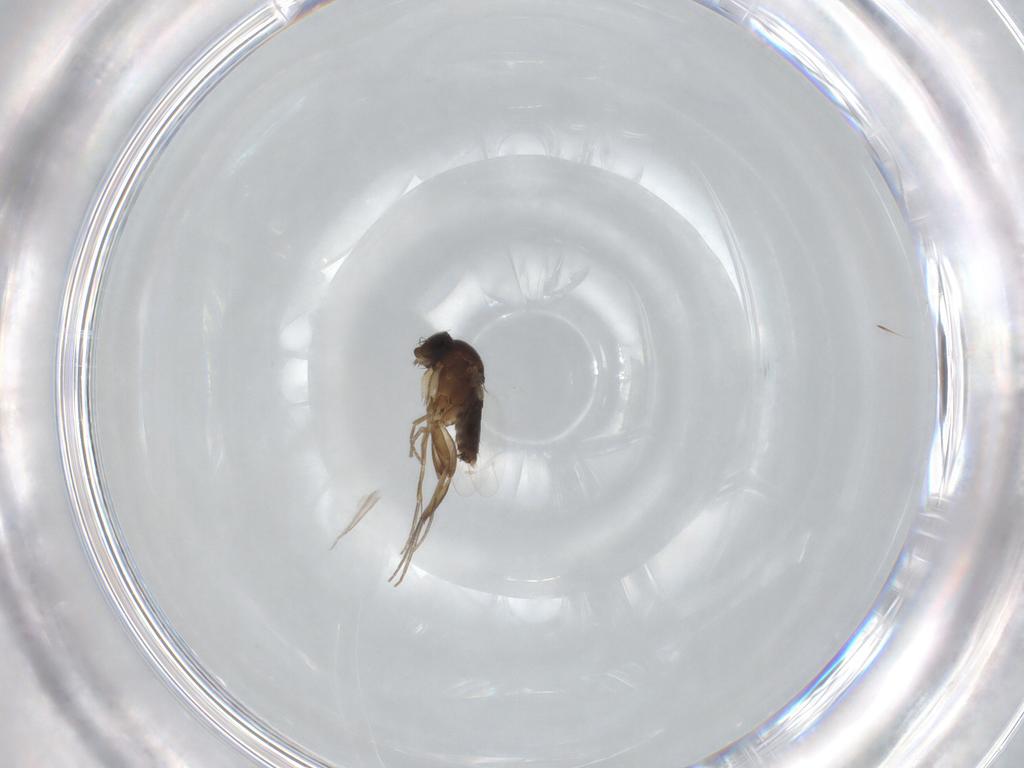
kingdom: Animalia
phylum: Arthropoda
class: Insecta
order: Diptera
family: Phoridae
